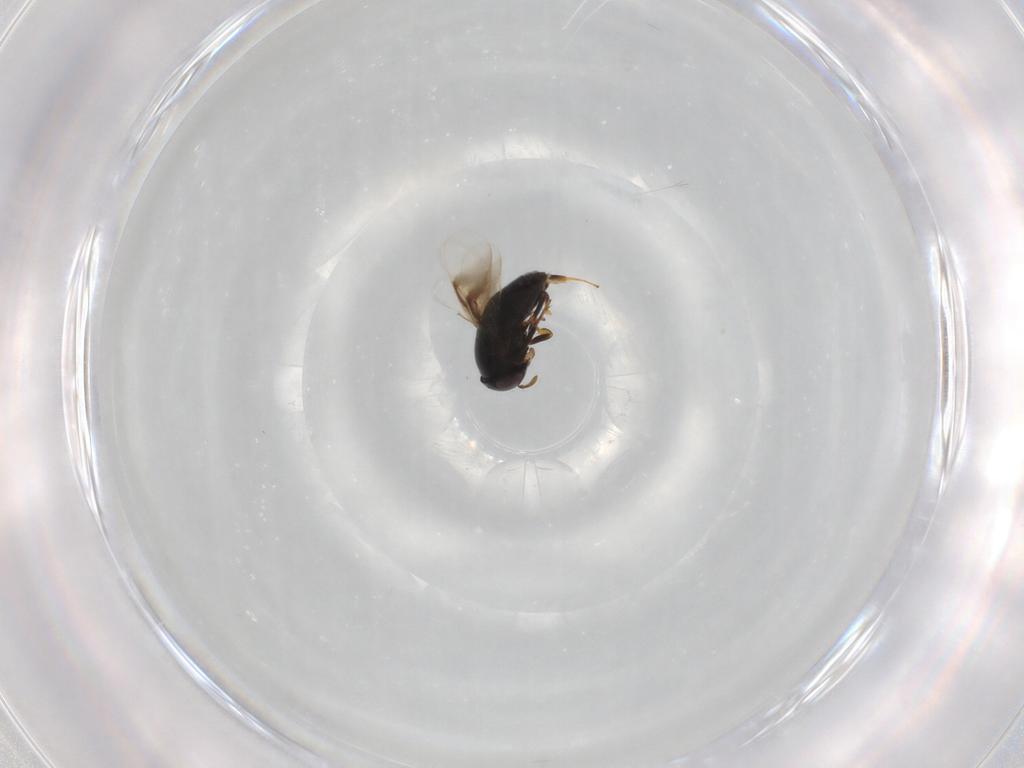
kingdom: Animalia
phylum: Arthropoda
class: Insecta
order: Hymenoptera
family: Signiphoridae
